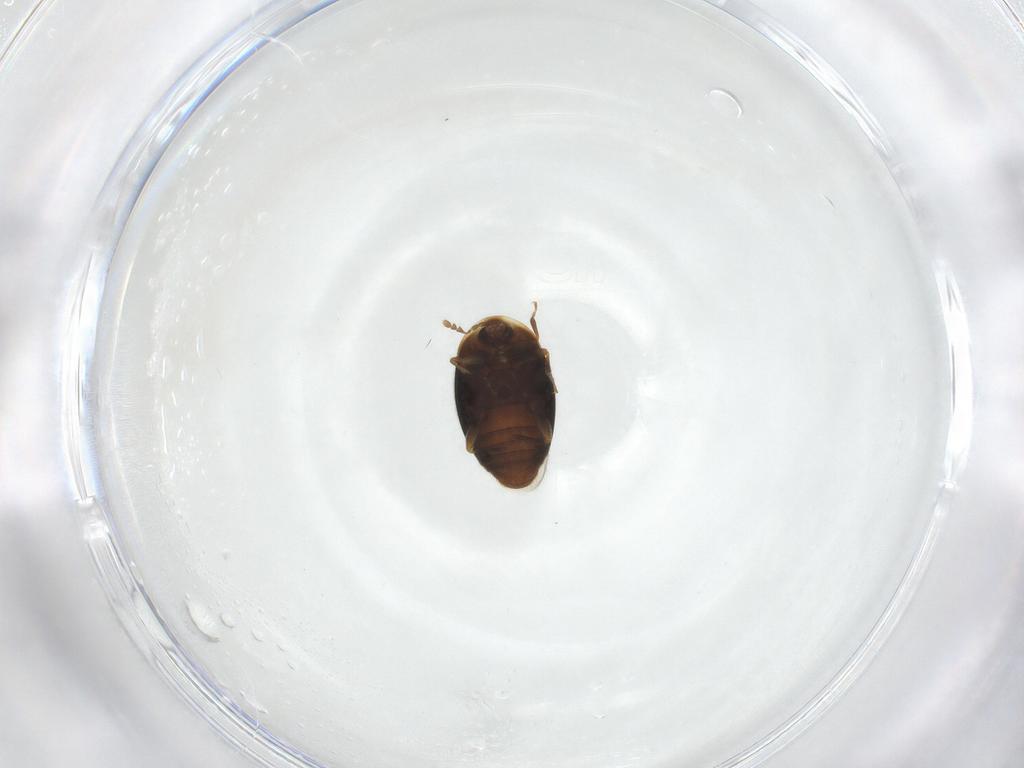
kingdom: Animalia
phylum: Arthropoda
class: Insecta
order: Coleoptera
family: Corylophidae
